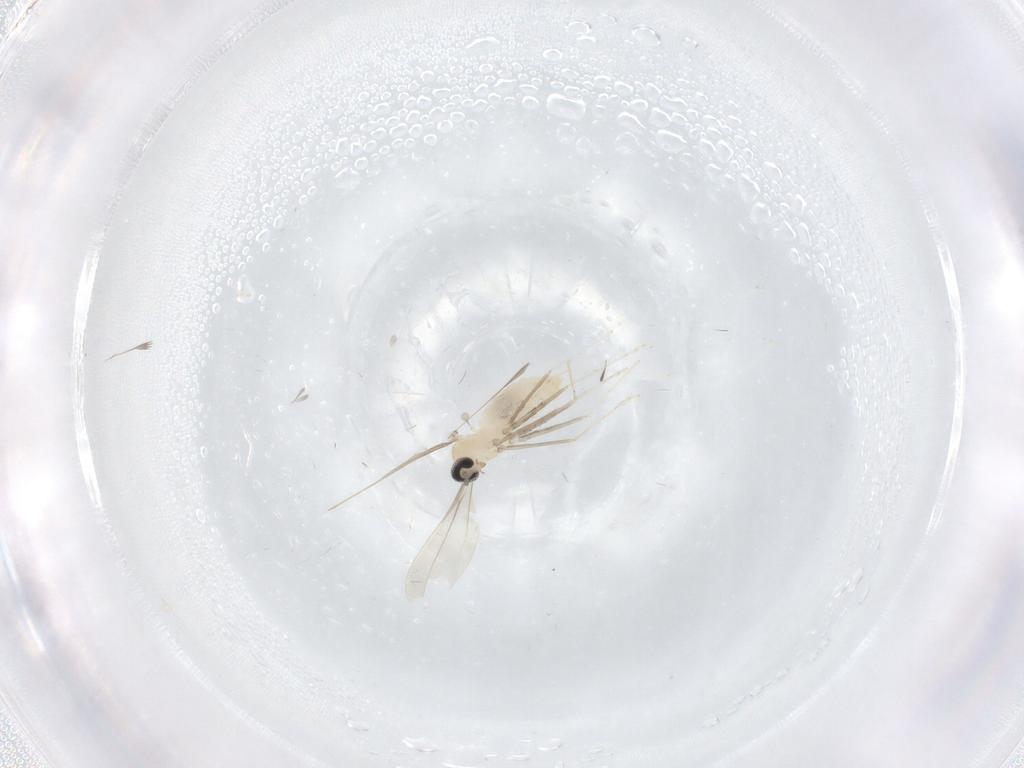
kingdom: Animalia
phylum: Arthropoda
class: Insecta
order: Diptera
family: Cecidomyiidae
